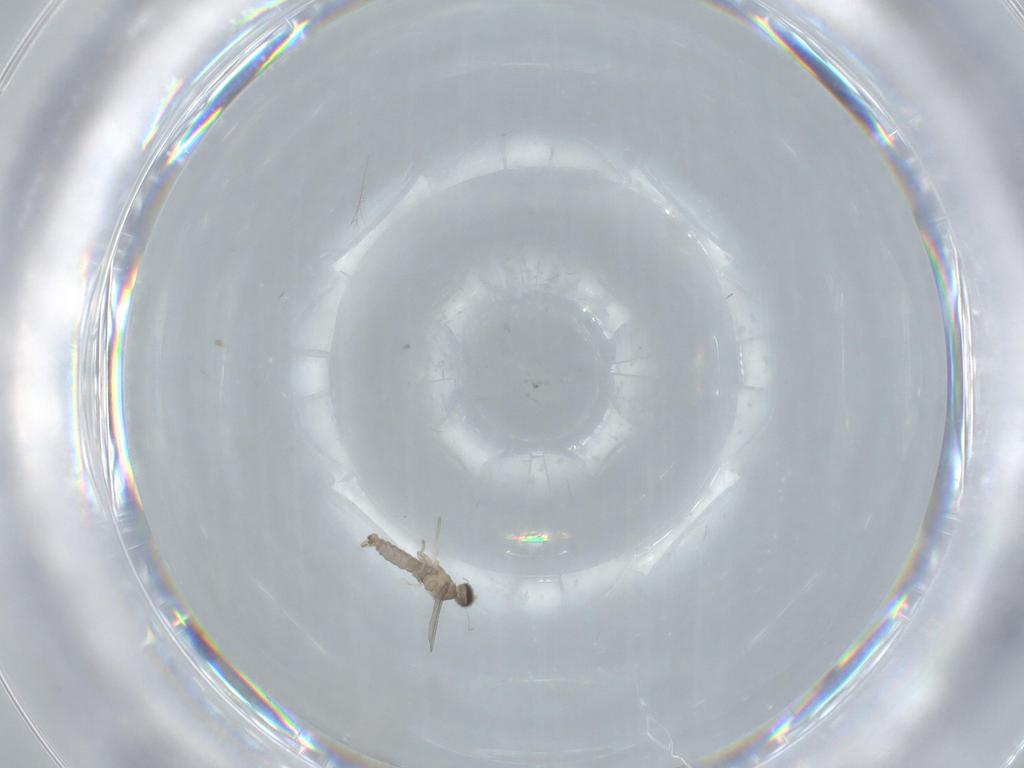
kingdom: Animalia
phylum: Arthropoda
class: Insecta
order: Diptera
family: Cecidomyiidae
